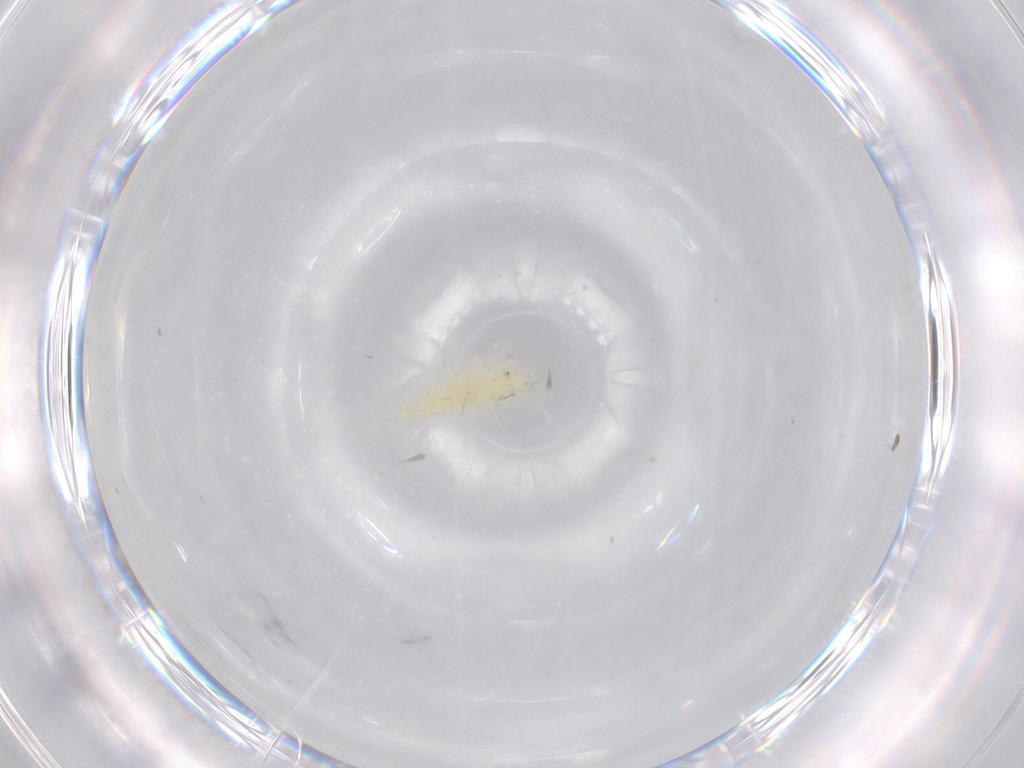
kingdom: Animalia
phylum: Arthropoda
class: Insecta
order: Thysanoptera
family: Phlaeothripidae
